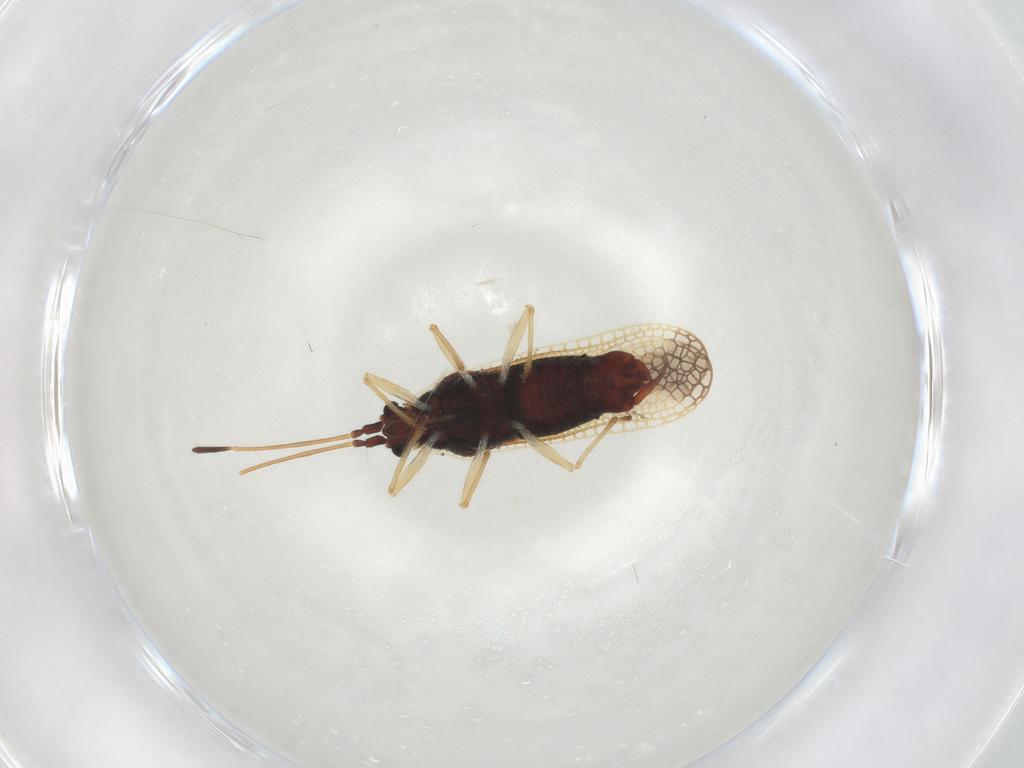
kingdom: Animalia
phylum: Arthropoda
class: Insecta
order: Hemiptera
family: Tingidae
